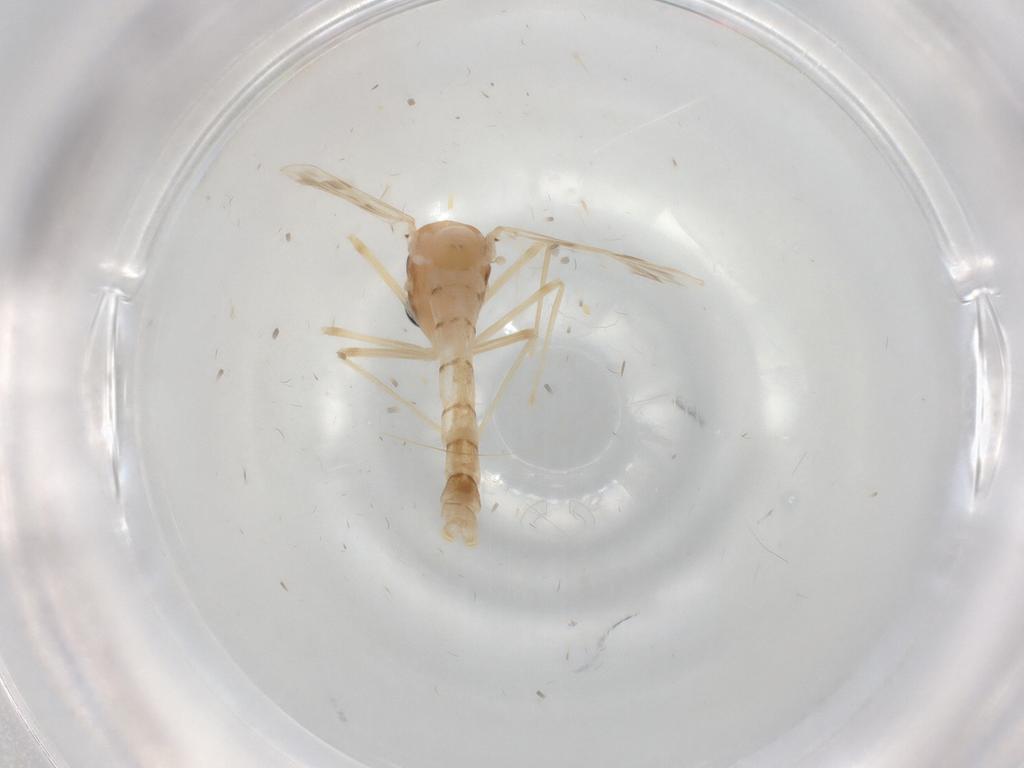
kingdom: Animalia
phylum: Arthropoda
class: Insecta
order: Diptera
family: Chironomidae
